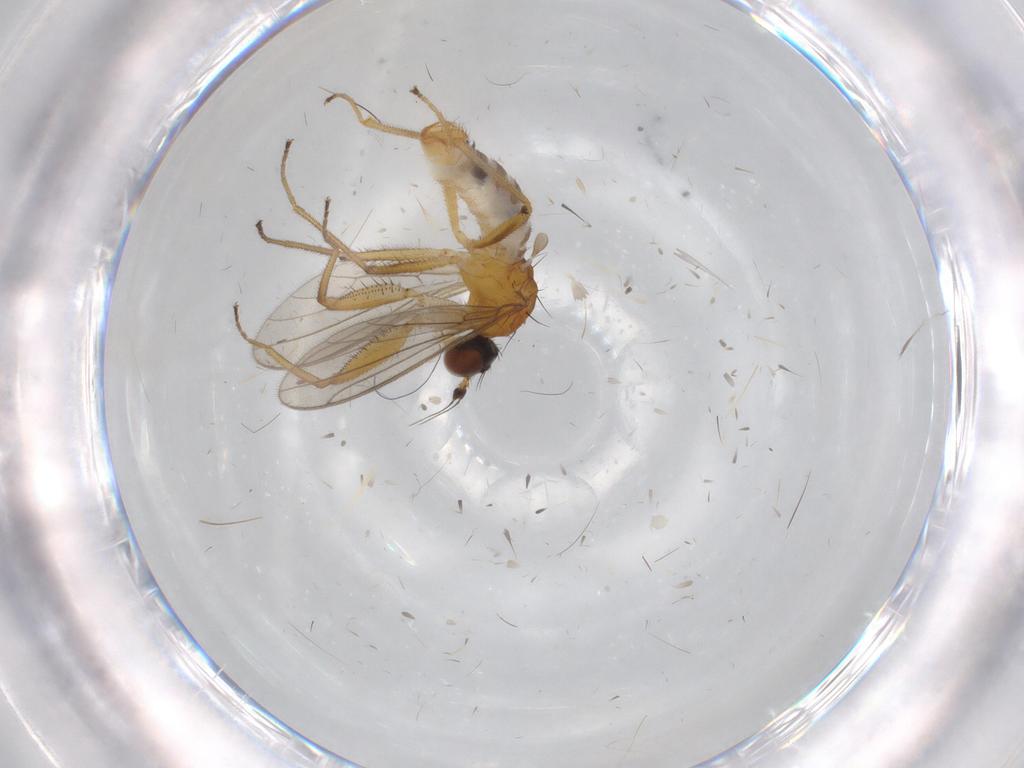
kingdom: Animalia
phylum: Arthropoda
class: Insecta
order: Diptera
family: Empididae
